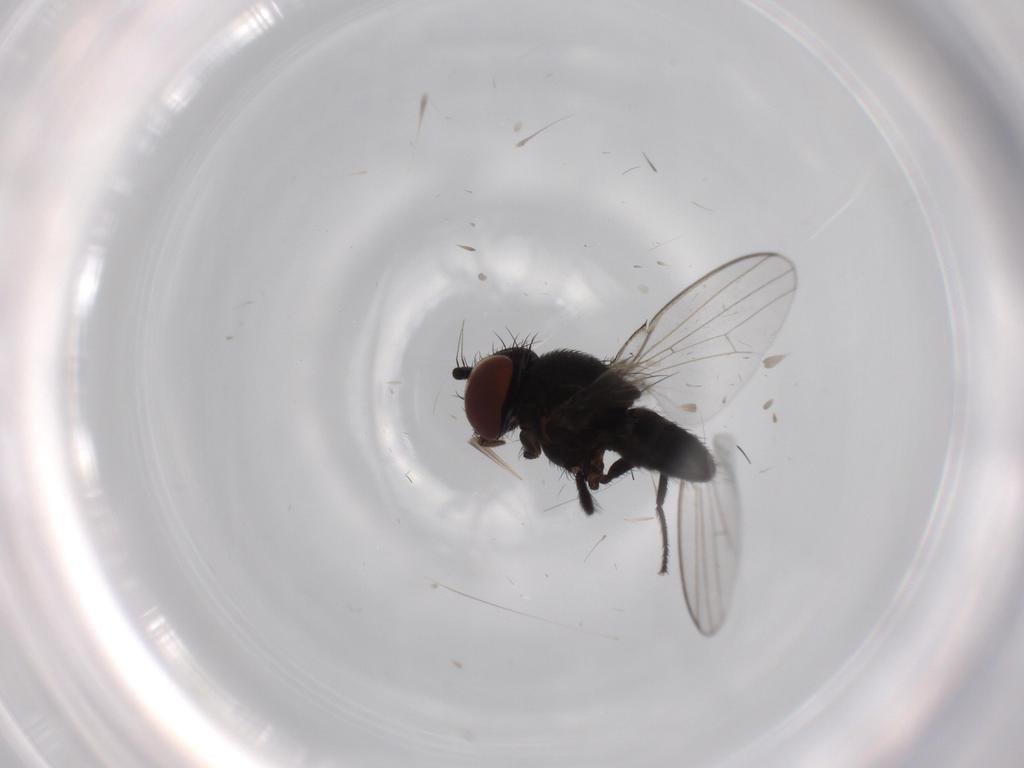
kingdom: Animalia
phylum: Arthropoda
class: Insecta
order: Diptera
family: Milichiidae
